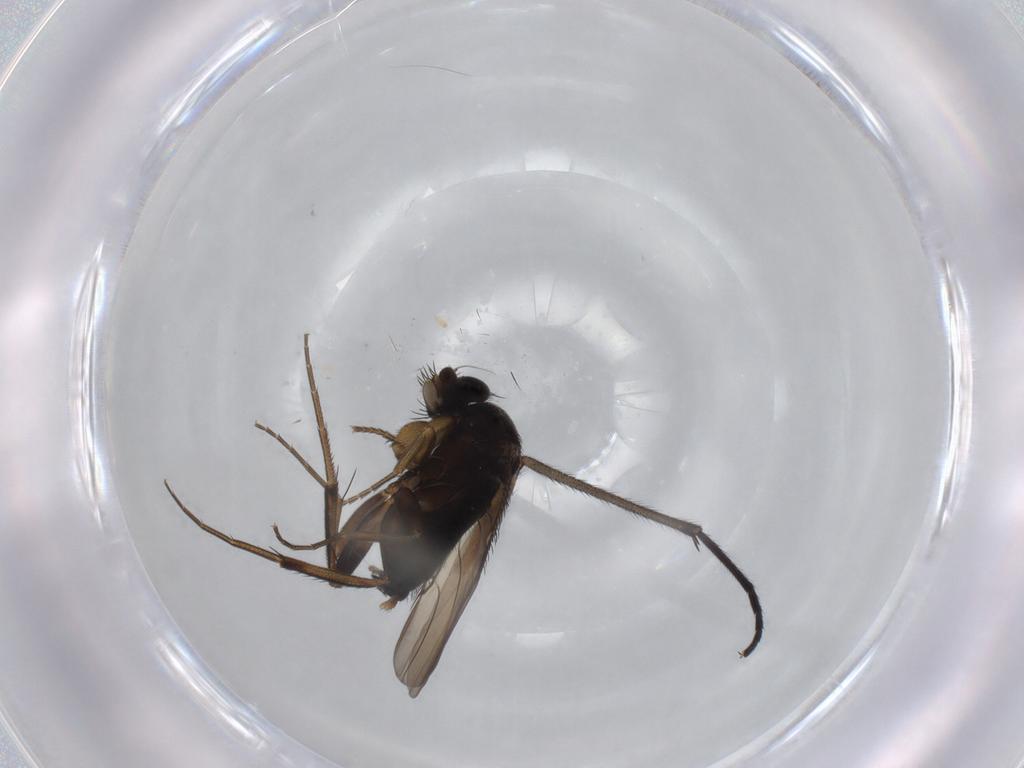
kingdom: Animalia
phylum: Arthropoda
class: Insecta
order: Diptera
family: Phoridae
